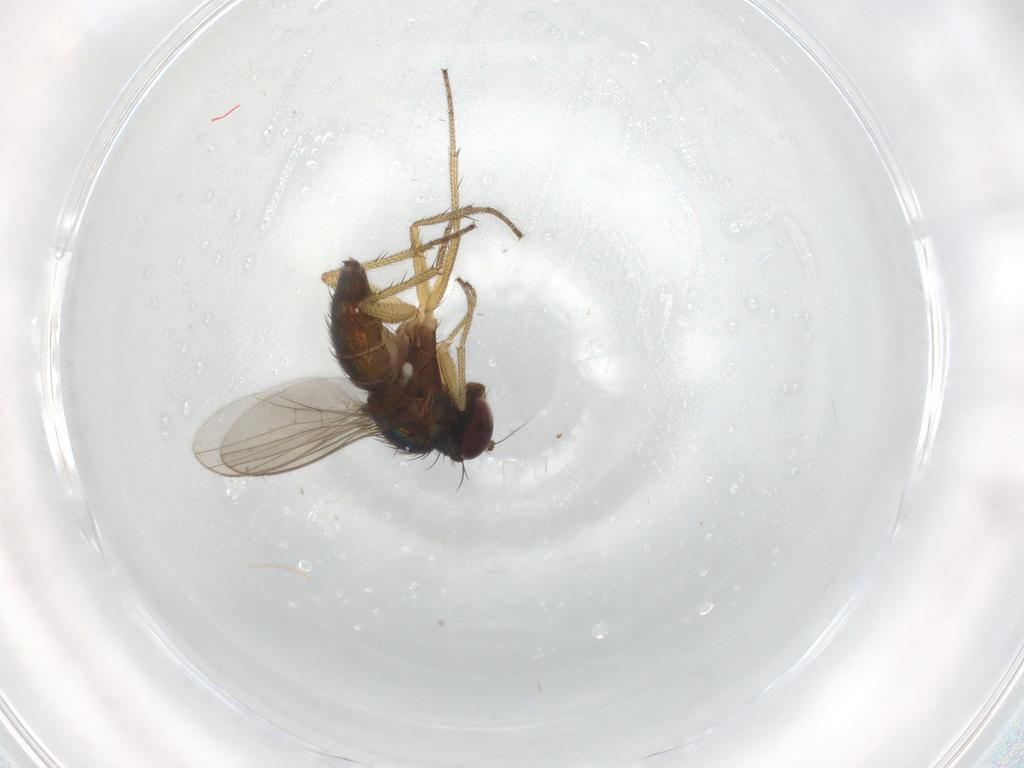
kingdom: Animalia
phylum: Arthropoda
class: Insecta
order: Diptera
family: Dolichopodidae
